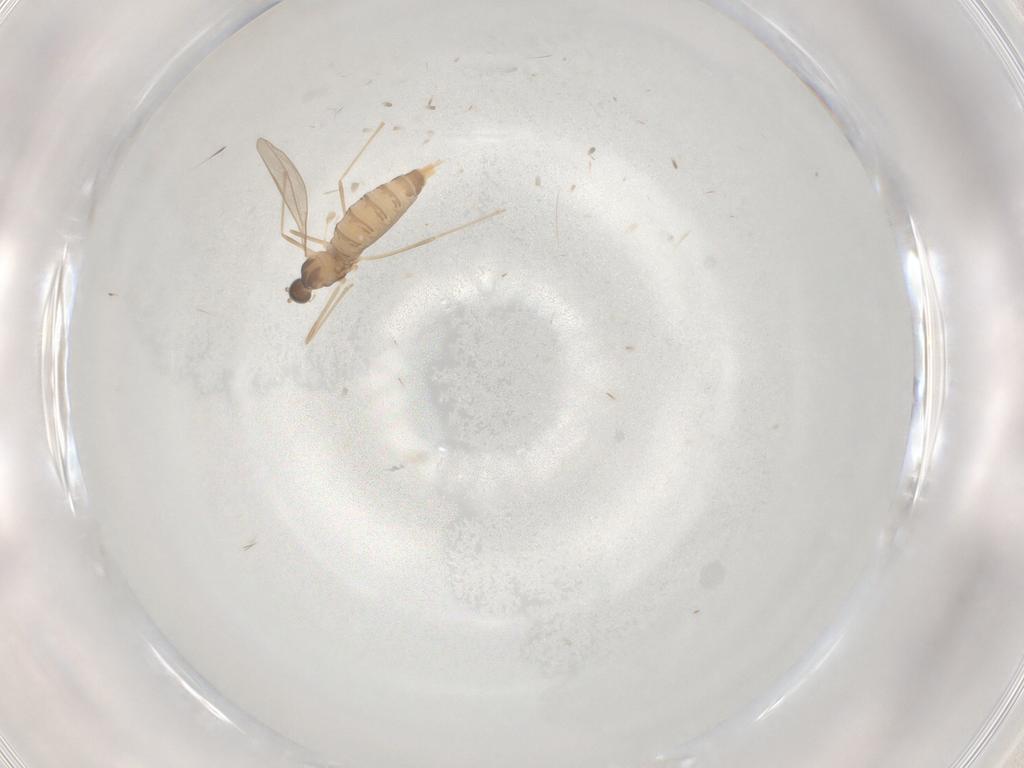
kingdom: Animalia
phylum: Arthropoda
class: Insecta
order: Diptera
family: Cecidomyiidae
